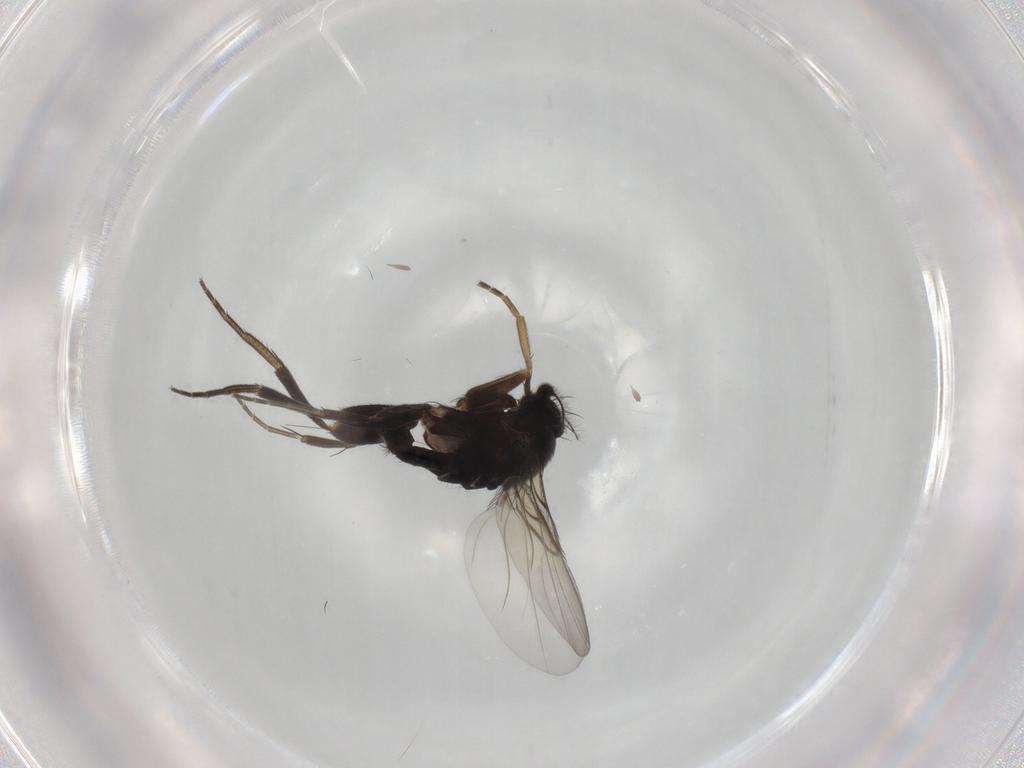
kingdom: Animalia
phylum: Arthropoda
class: Insecta
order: Diptera
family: Phoridae
